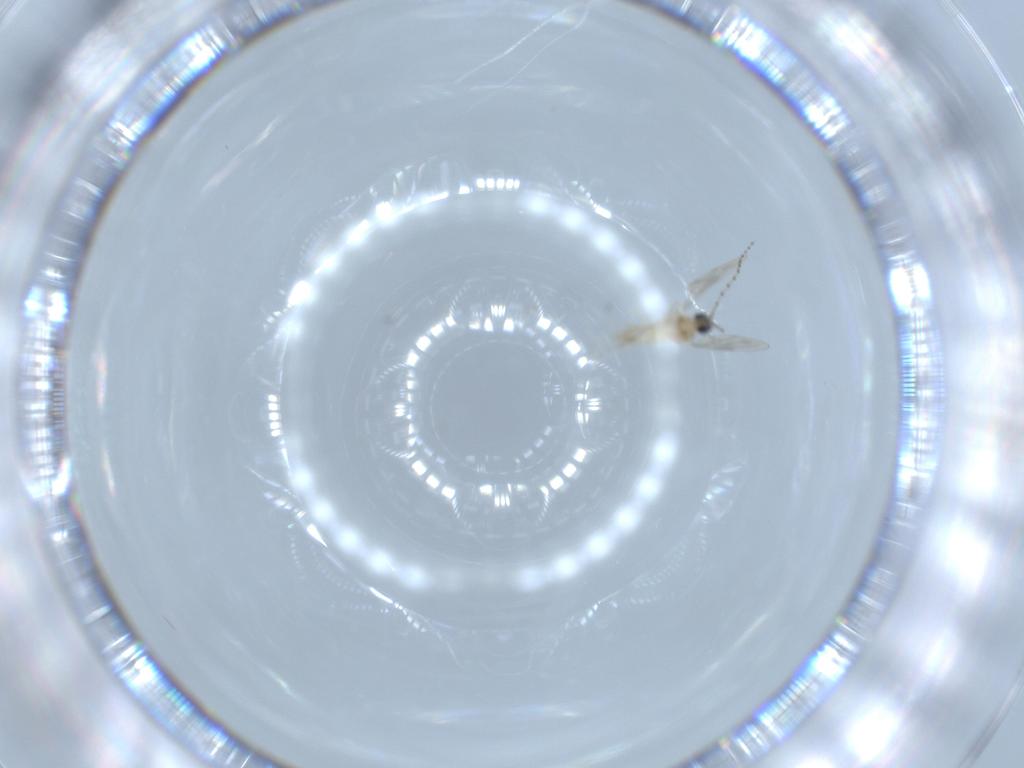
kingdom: Animalia
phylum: Arthropoda
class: Insecta
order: Diptera
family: Cecidomyiidae
